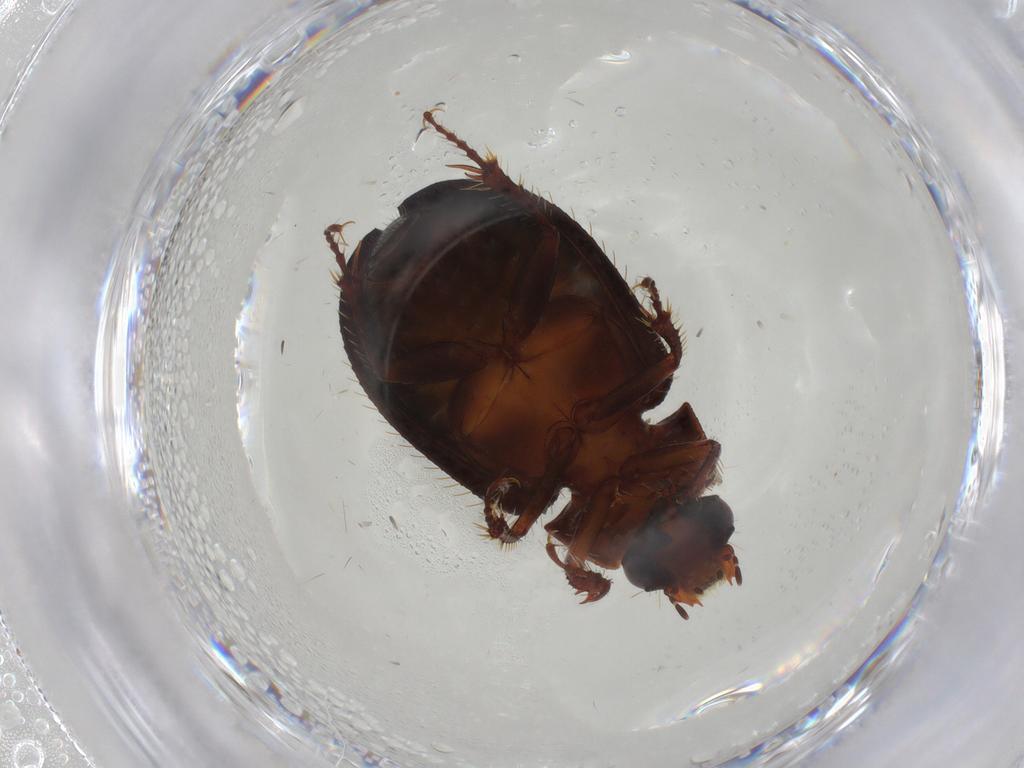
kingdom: Animalia
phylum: Arthropoda
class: Insecta
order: Coleoptera
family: Hybosoridae
